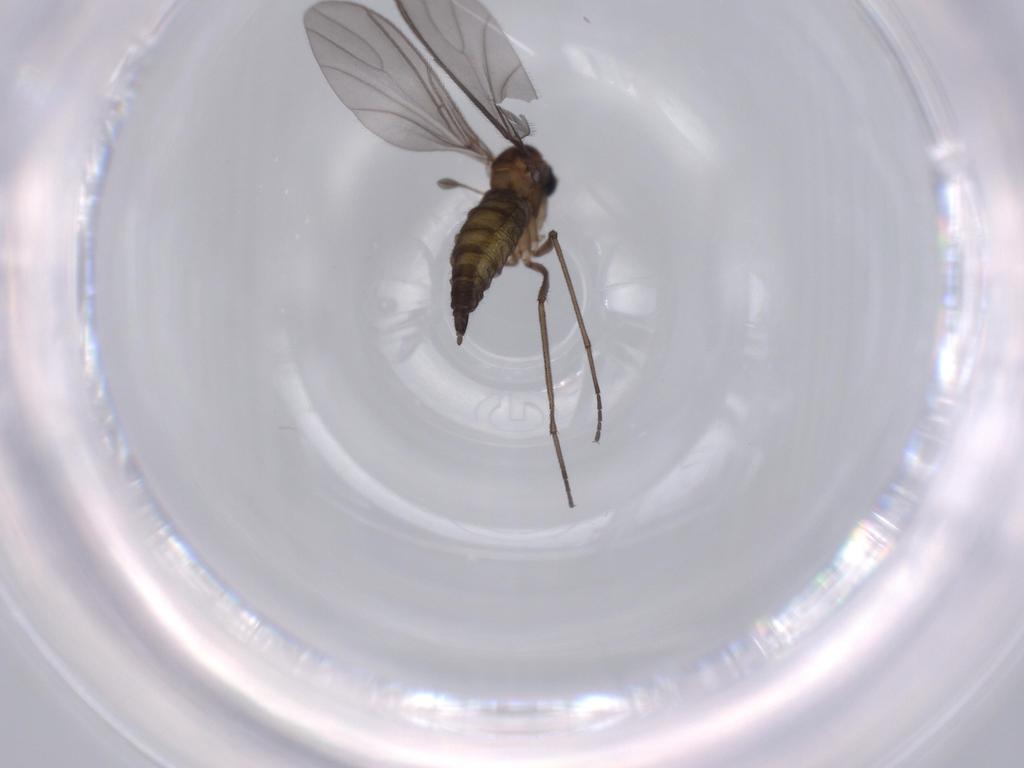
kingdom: Animalia
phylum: Arthropoda
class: Insecta
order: Diptera
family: Sciaridae
